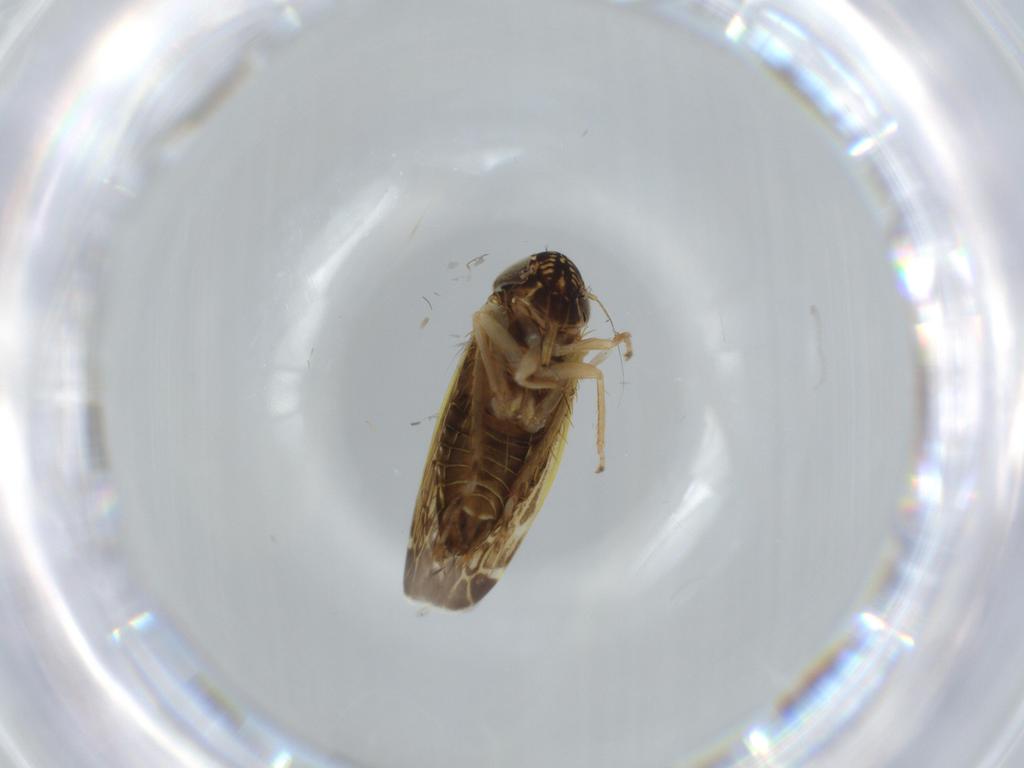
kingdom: Animalia
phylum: Arthropoda
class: Insecta
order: Hemiptera
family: Cicadellidae
